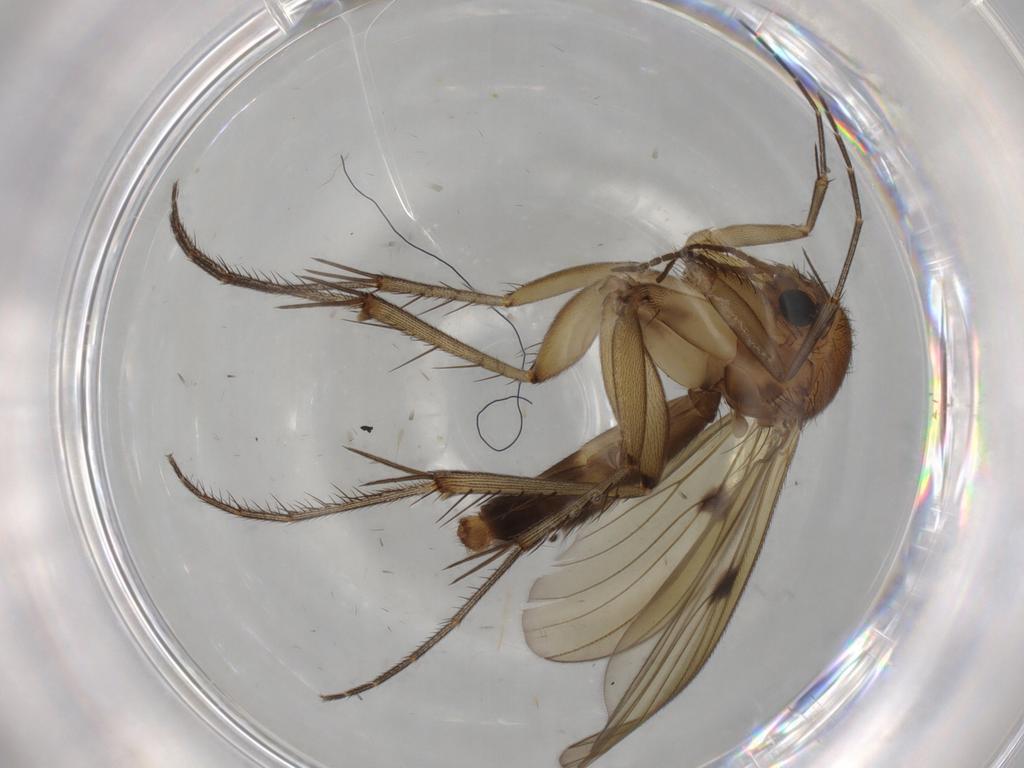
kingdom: Animalia
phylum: Arthropoda
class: Insecta
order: Diptera
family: Mycetophilidae
